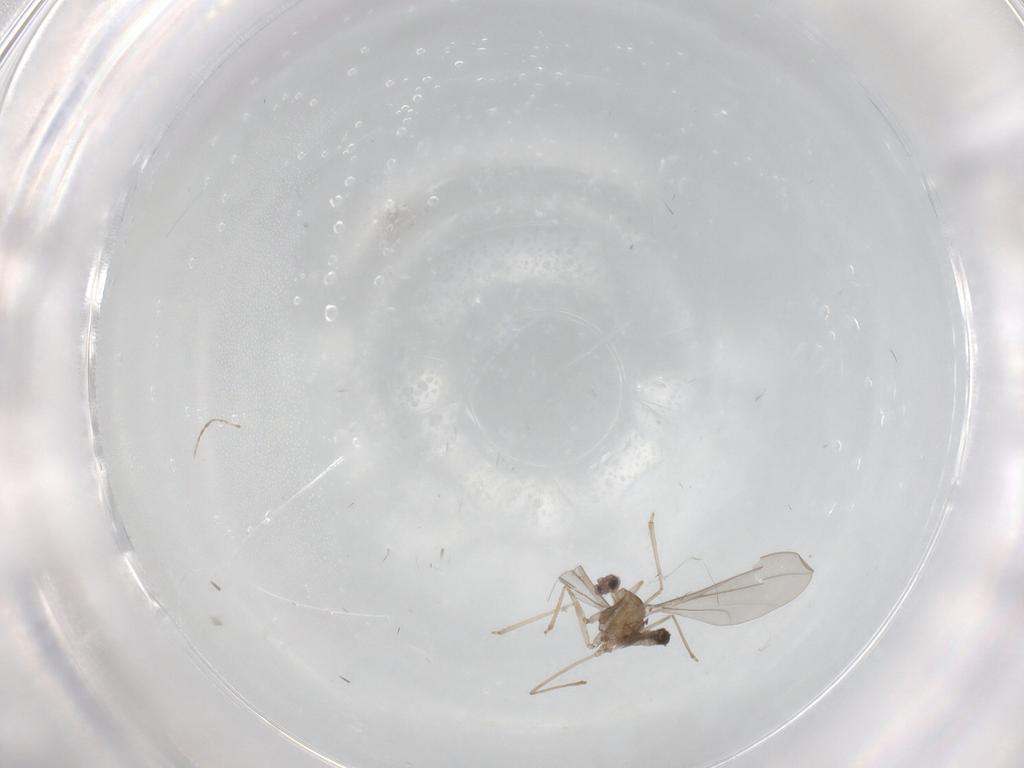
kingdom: Animalia
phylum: Arthropoda
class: Insecta
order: Diptera
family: Cecidomyiidae
